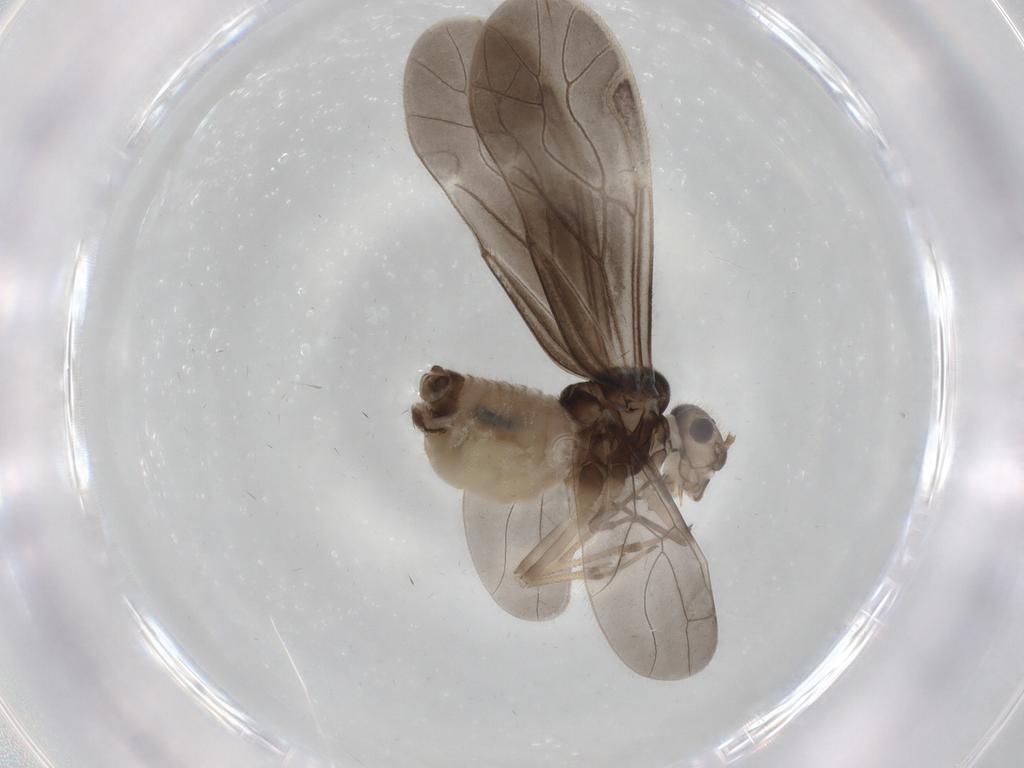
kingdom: Animalia
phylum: Arthropoda
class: Insecta
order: Psocodea
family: Caeciliusidae
